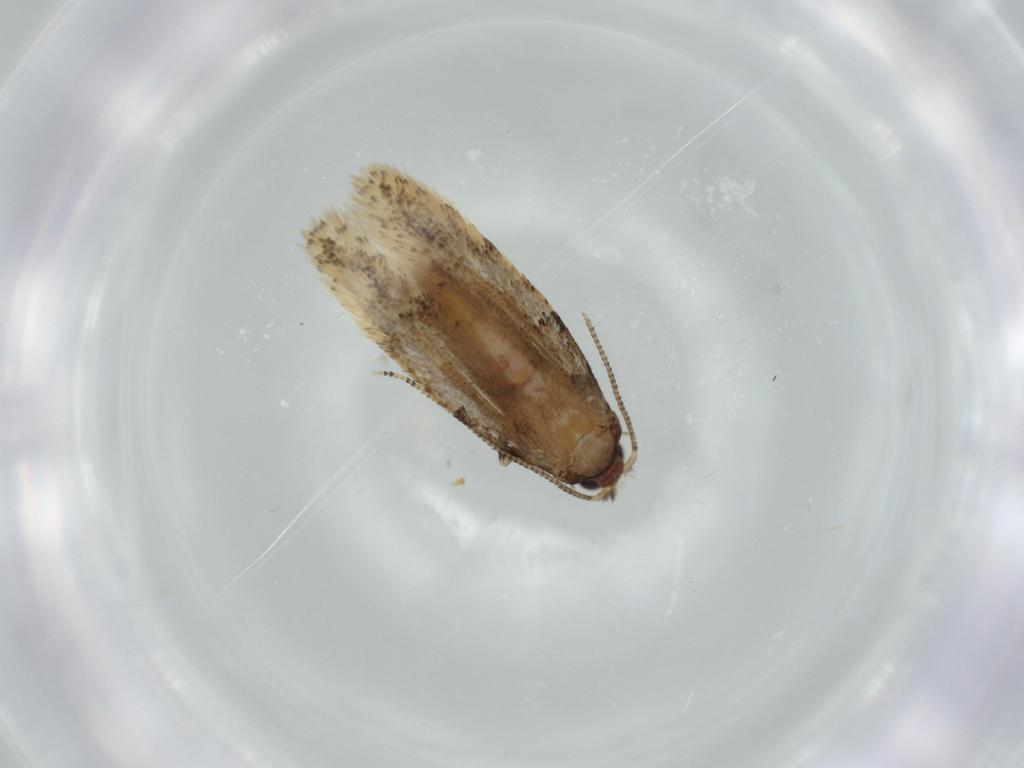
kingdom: Animalia
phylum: Arthropoda
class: Insecta
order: Lepidoptera
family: Tineidae
